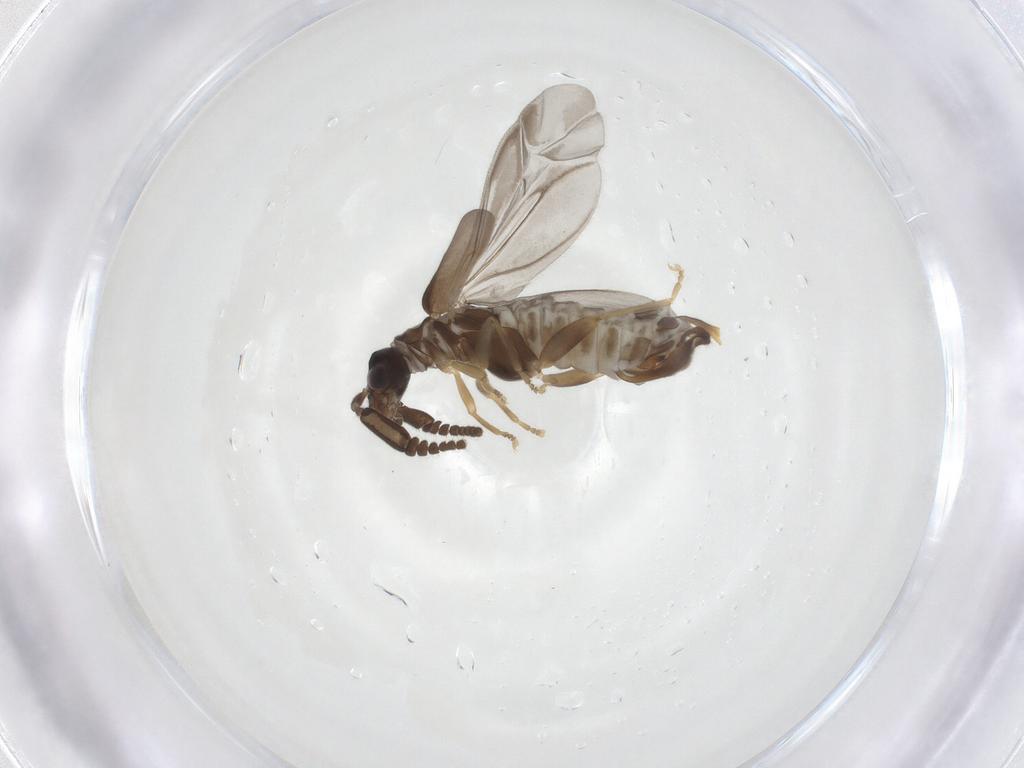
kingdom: Animalia
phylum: Arthropoda
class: Insecta
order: Coleoptera
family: Cantharidae
